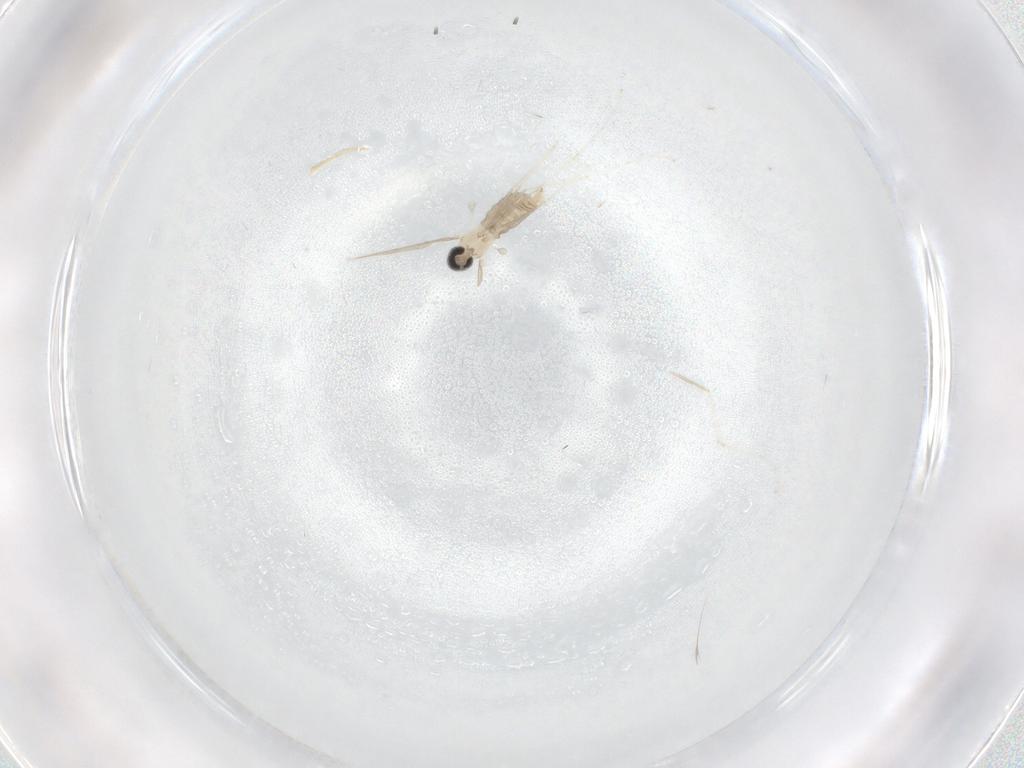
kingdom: Animalia
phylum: Arthropoda
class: Insecta
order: Diptera
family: Cecidomyiidae
